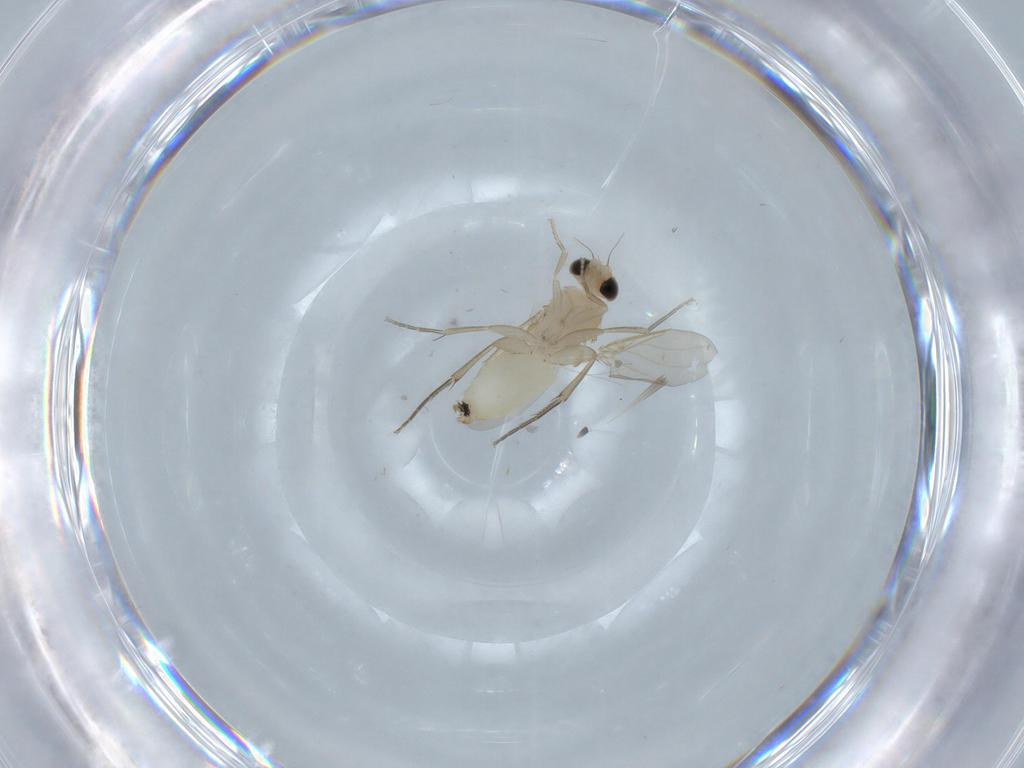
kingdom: Animalia
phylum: Arthropoda
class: Insecta
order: Diptera
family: Phoridae
